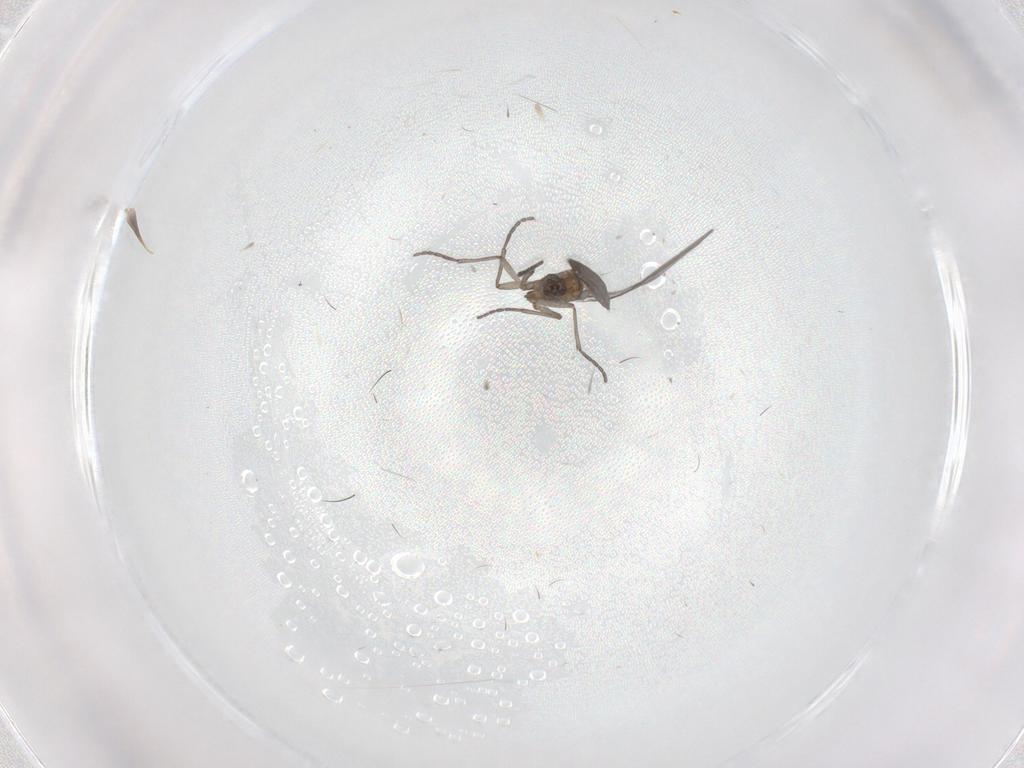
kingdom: Animalia
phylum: Arthropoda
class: Insecta
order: Diptera
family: Sciaridae
